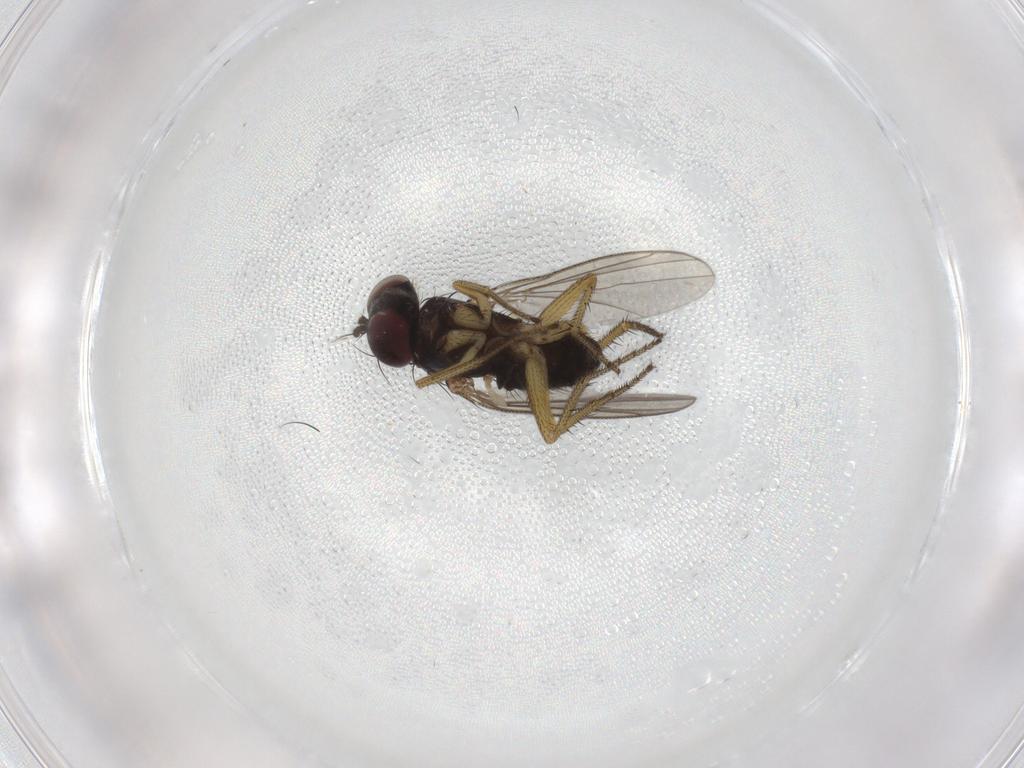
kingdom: Animalia
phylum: Arthropoda
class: Insecta
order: Diptera
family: Dolichopodidae
